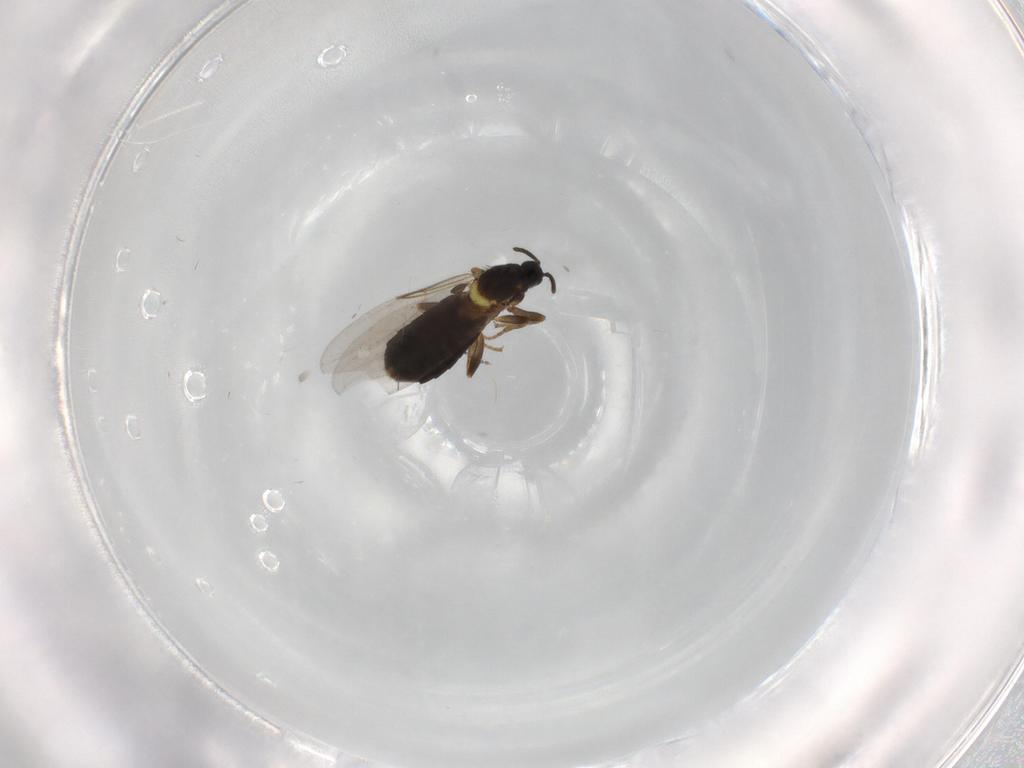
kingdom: Animalia
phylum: Arthropoda
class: Insecta
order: Diptera
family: Scatopsidae
